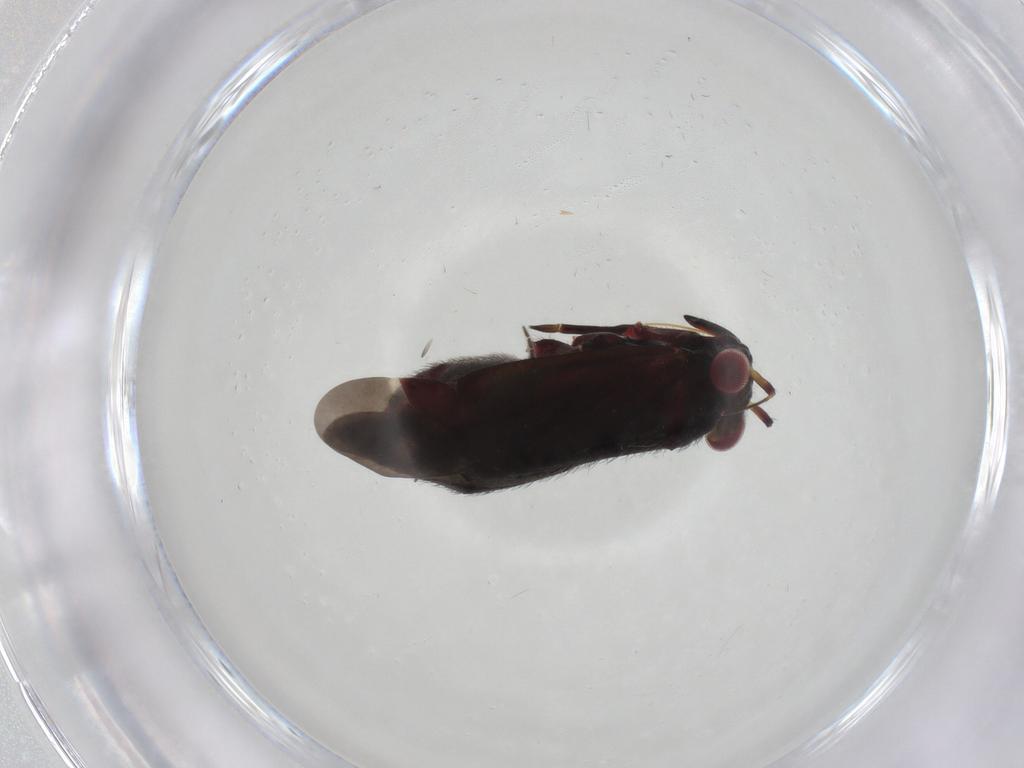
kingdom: Animalia
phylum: Arthropoda
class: Insecta
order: Hemiptera
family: Miridae
